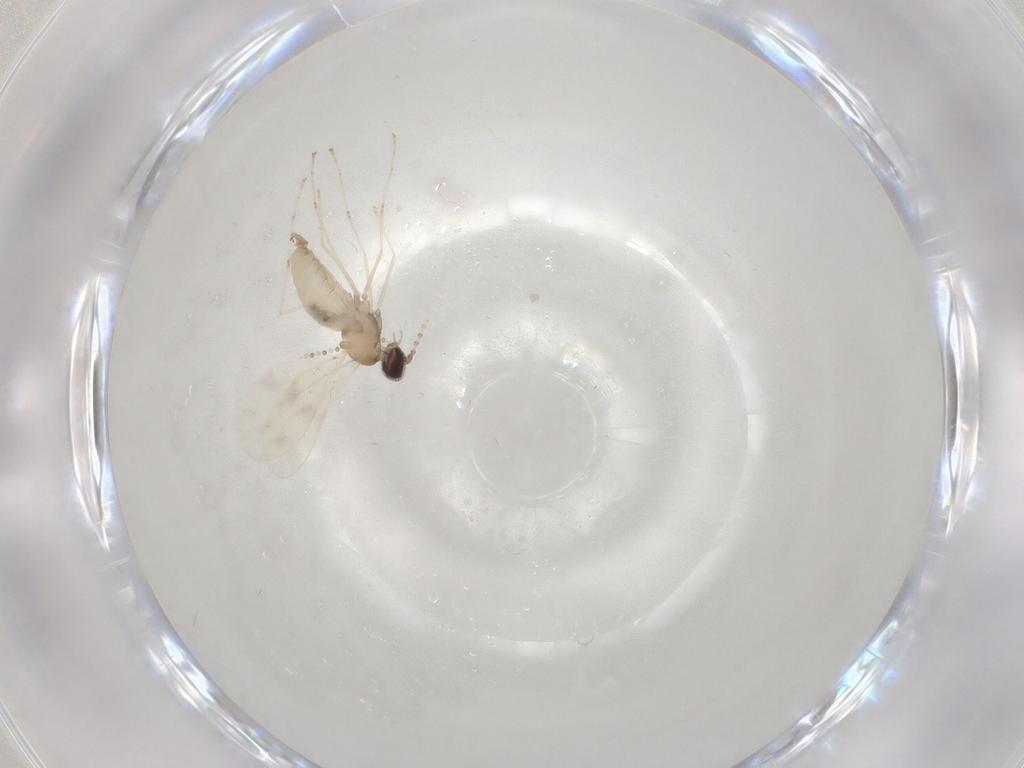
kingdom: Animalia
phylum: Arthropoda
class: Insecta
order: Diptera
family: Cecidomyiidae
